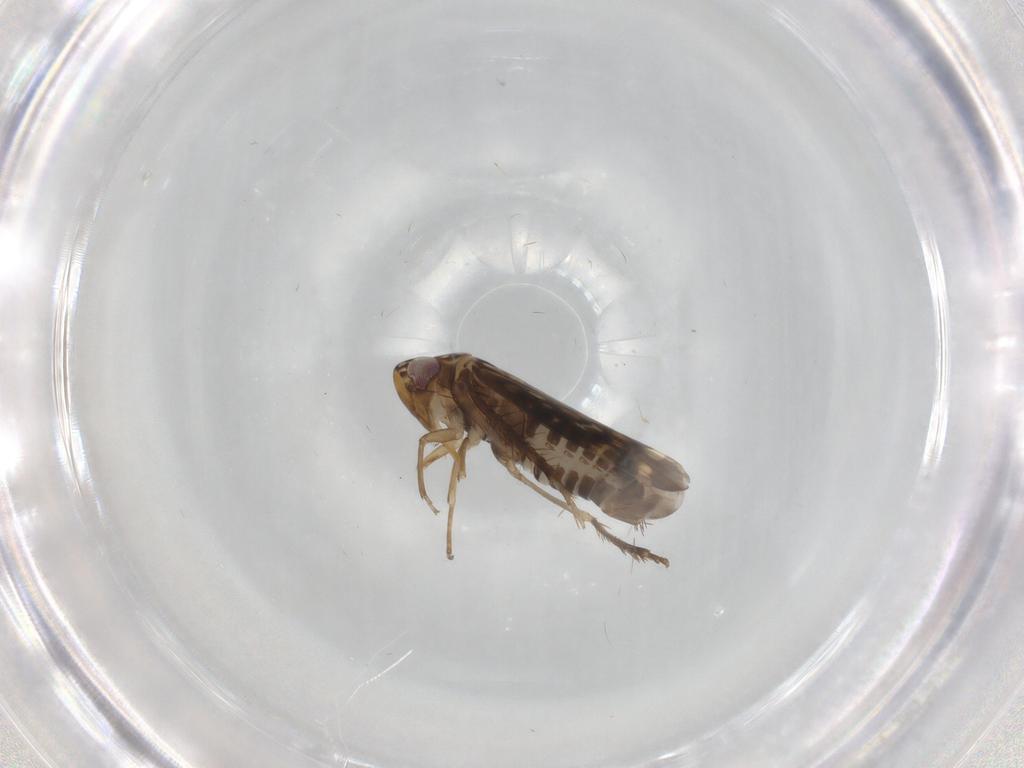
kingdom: Animalia
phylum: Arthropoda
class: Insecta
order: Hemiptera
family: Cicadellidae
